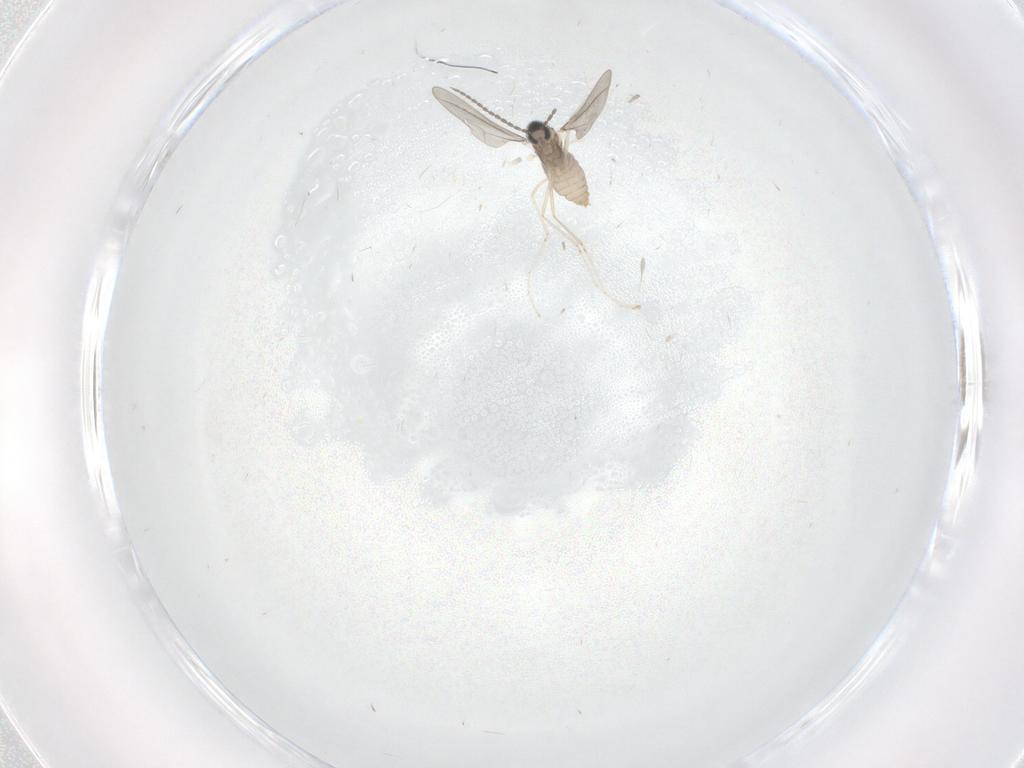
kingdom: Animalia
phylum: Arthropoda
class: Insecta
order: Diptera
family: Cecidomyiidae
